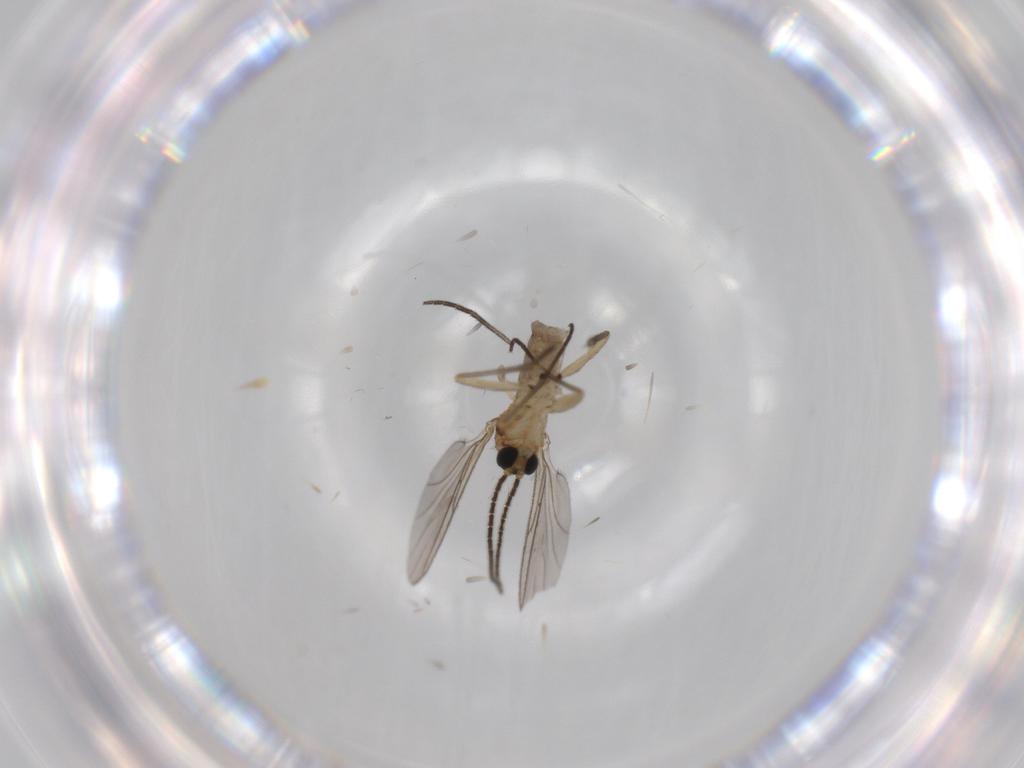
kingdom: Animalia
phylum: Arthropoda
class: Insecta
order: Diptera
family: Sciaridae
